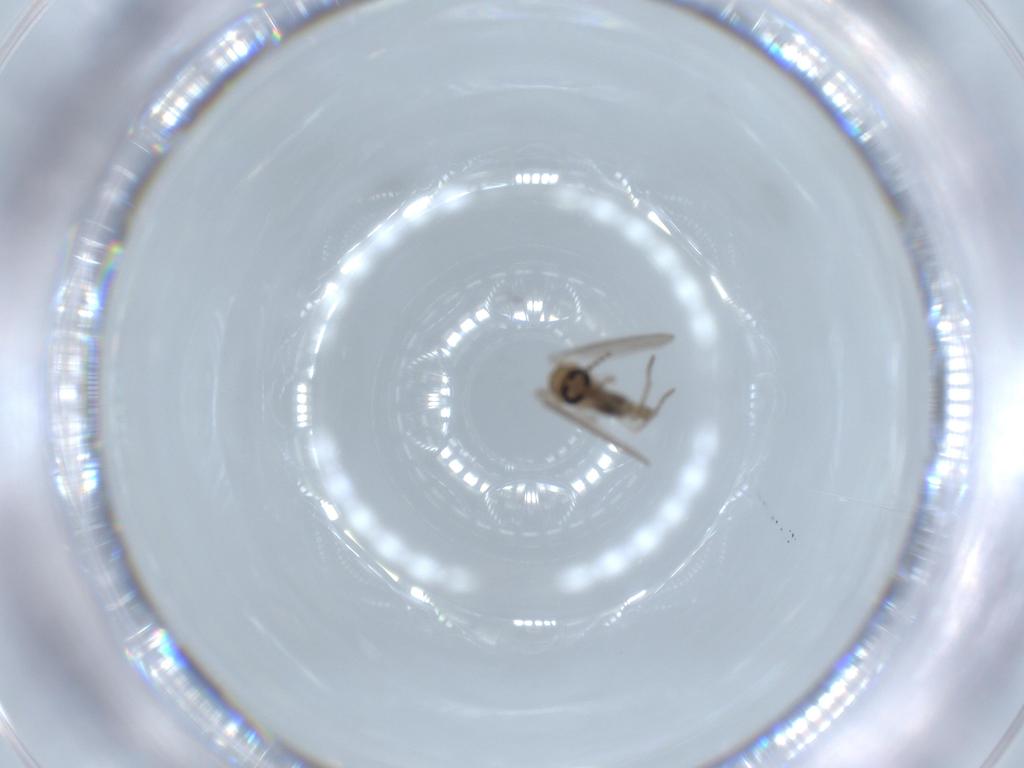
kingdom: Animalia
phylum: Arthropoda
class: Insecta
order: Diptera
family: Psychodidae
